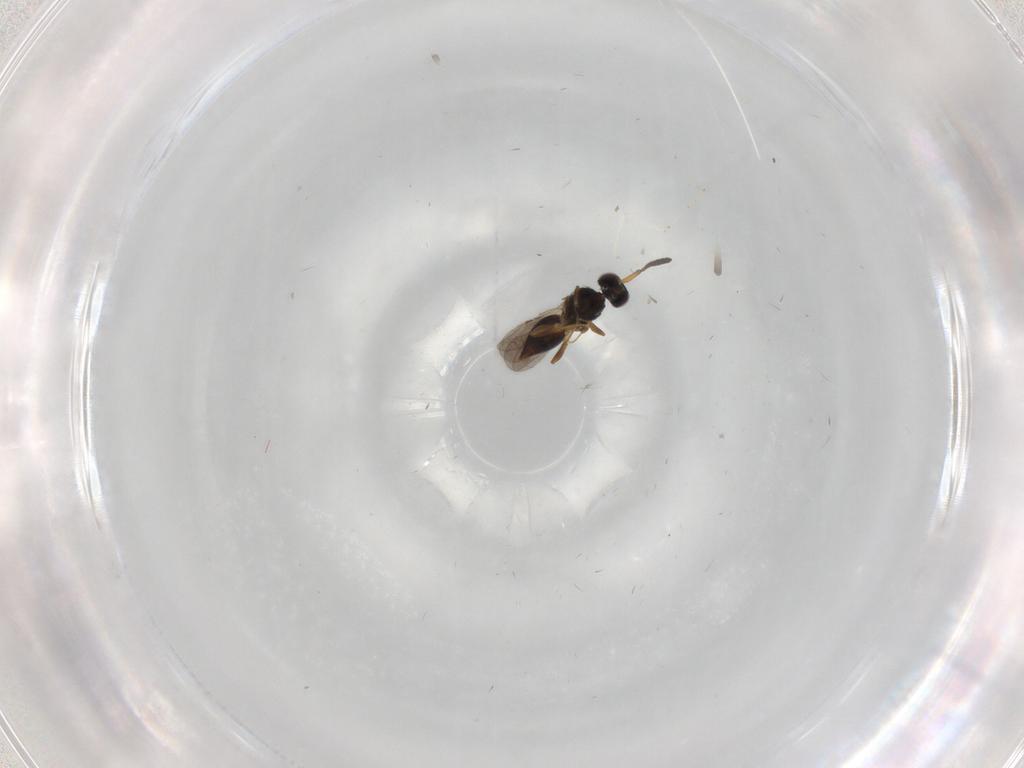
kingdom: Animalia
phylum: Arthropoda
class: Insecta
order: Hymenoptera
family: Ceraphronidae
